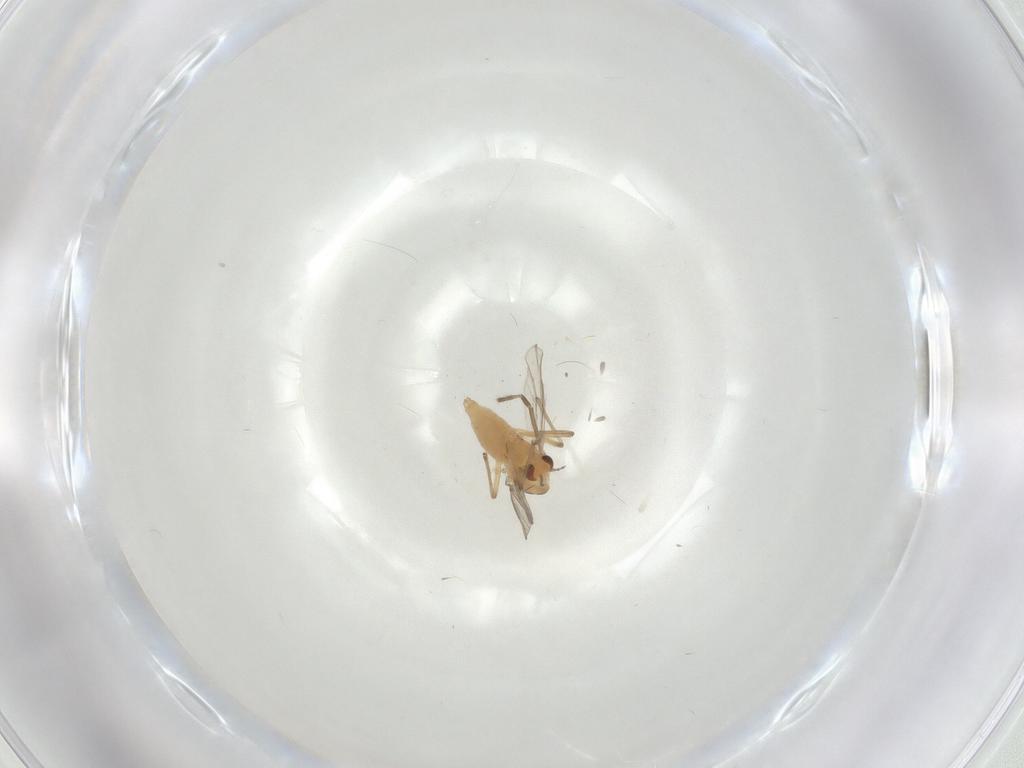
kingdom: Animalia
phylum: Arthropoda
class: Insecta
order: Diptera
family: Chironomidae
